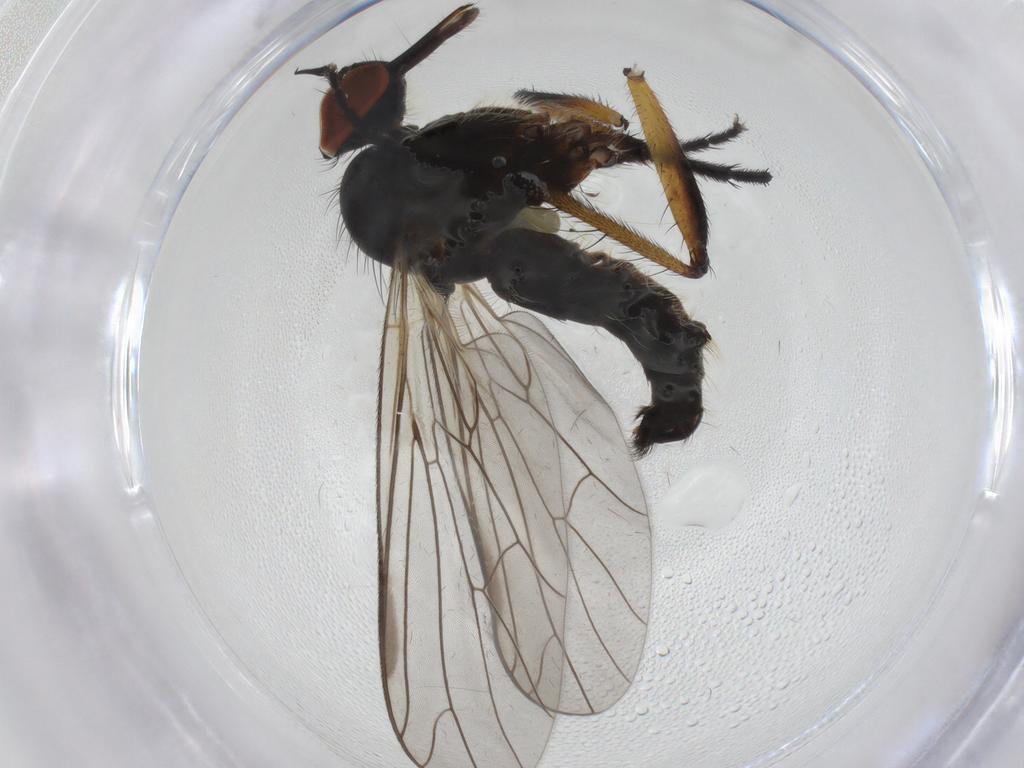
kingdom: Animalia
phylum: Arthropoda
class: Insecta
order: Diptera
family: Empididae
